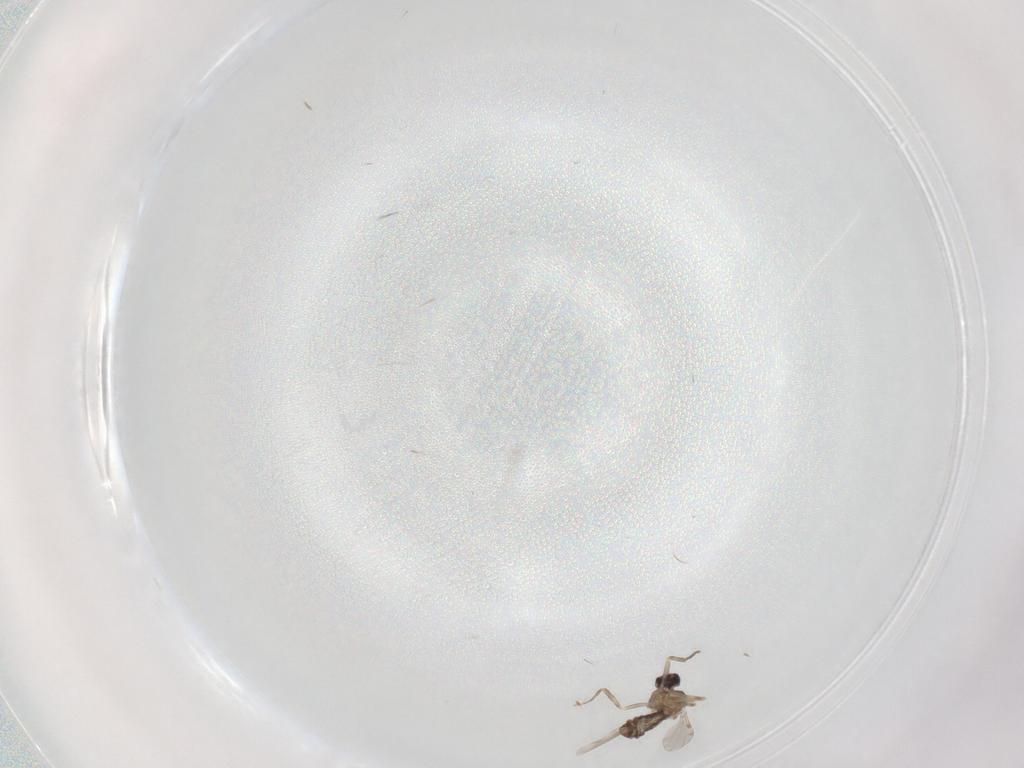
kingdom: Animalia
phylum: Arthropoda
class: Insecta
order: Diptera
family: Ceratopogonidae
